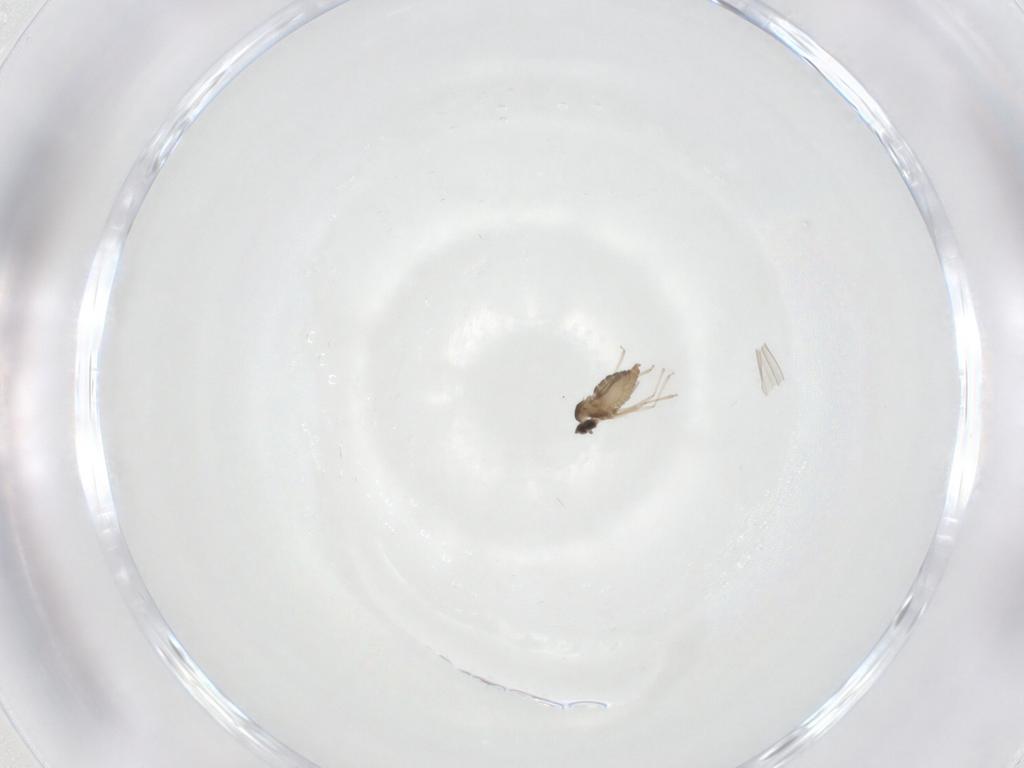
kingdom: Animalia
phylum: Arthropoda
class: Insecta
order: Diptera
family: Cecidomyiidae
